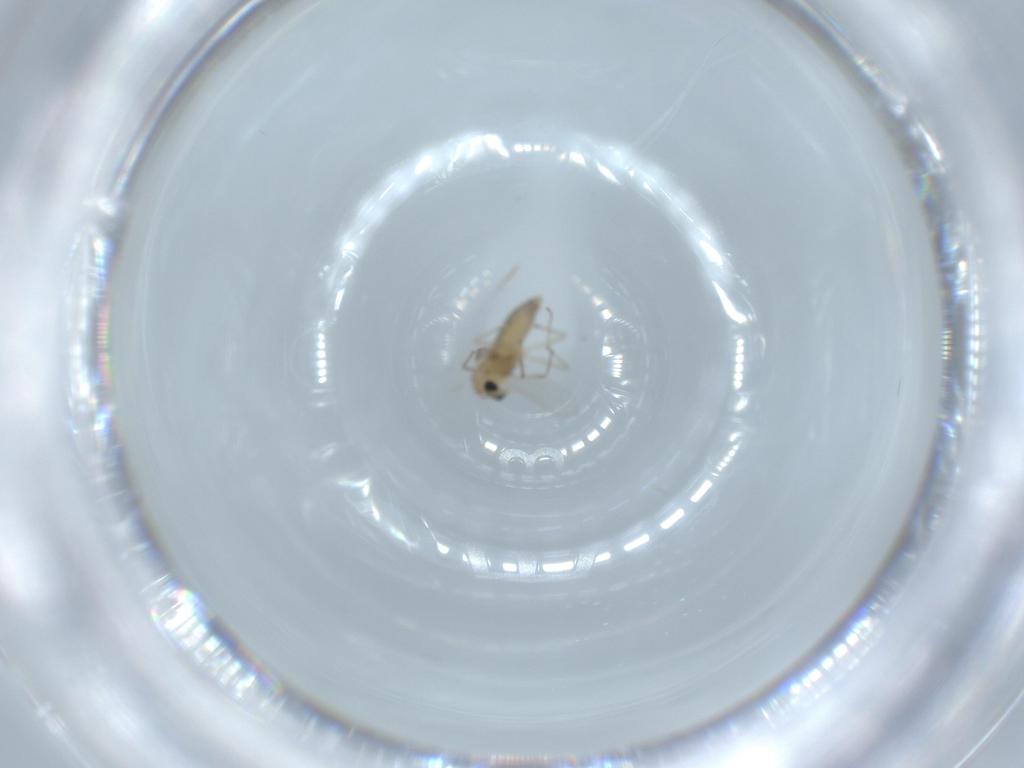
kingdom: Animalia
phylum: Arthropoda
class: Insecta
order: Diptera
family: Chironomidae
